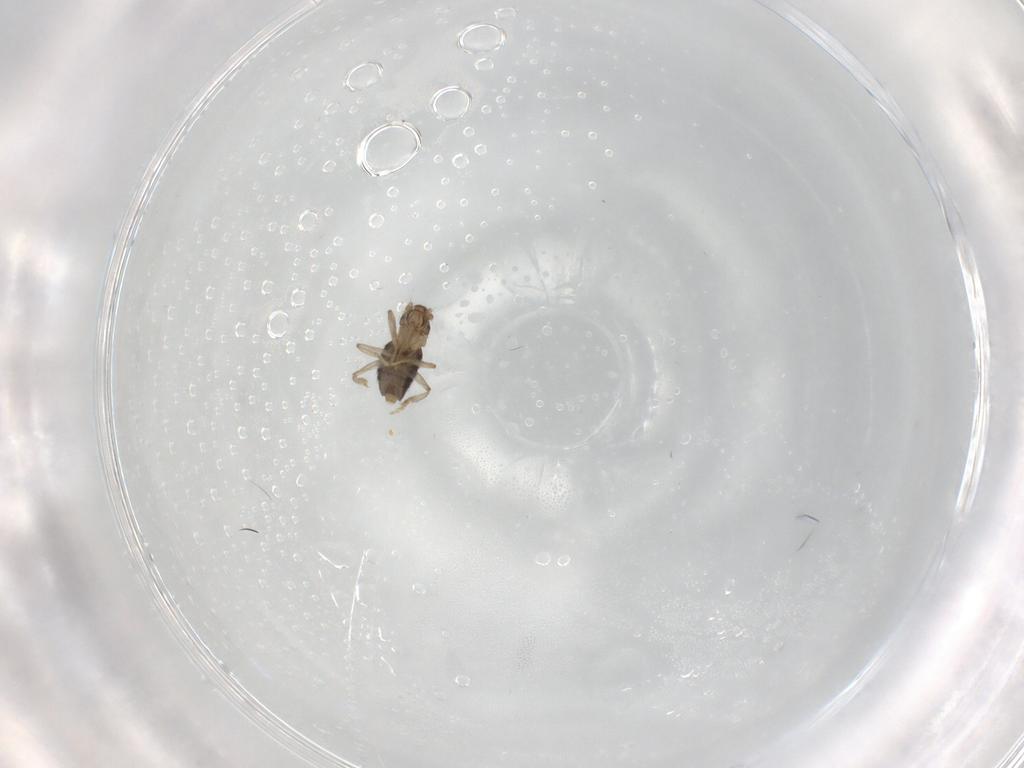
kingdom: Animalia
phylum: Arthropoda
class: Insecta
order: Diptera
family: Phoridae
